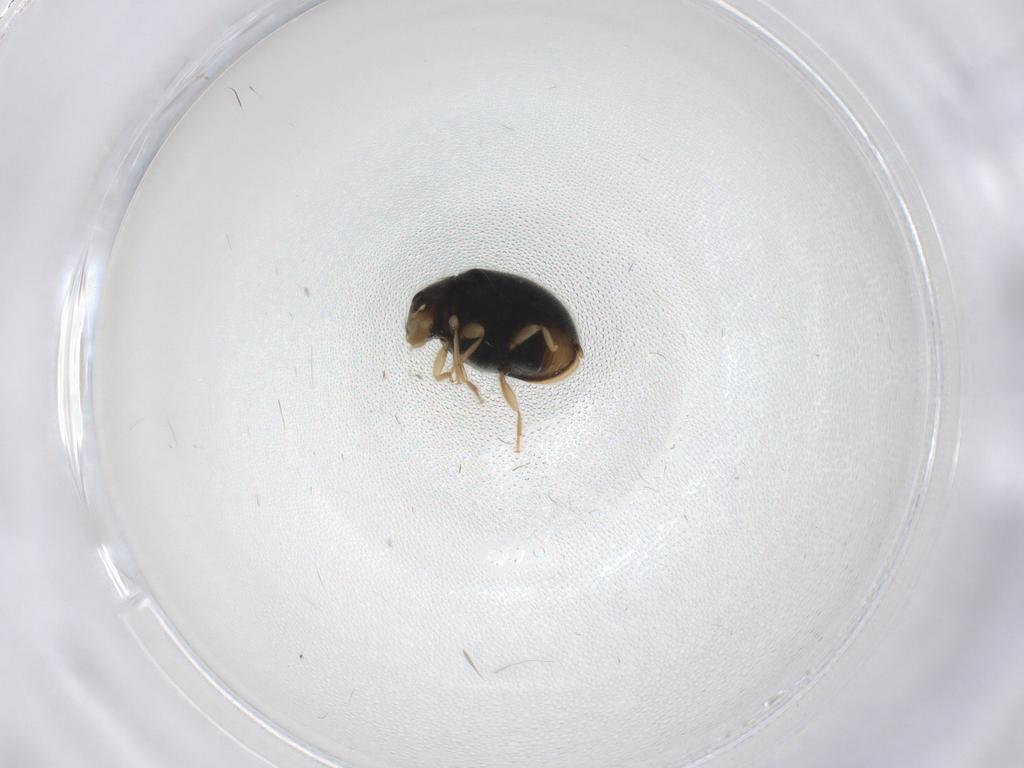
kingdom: Animalia
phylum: Arthropoda
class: Insecta
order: Coleoptera
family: Coccinellidae
